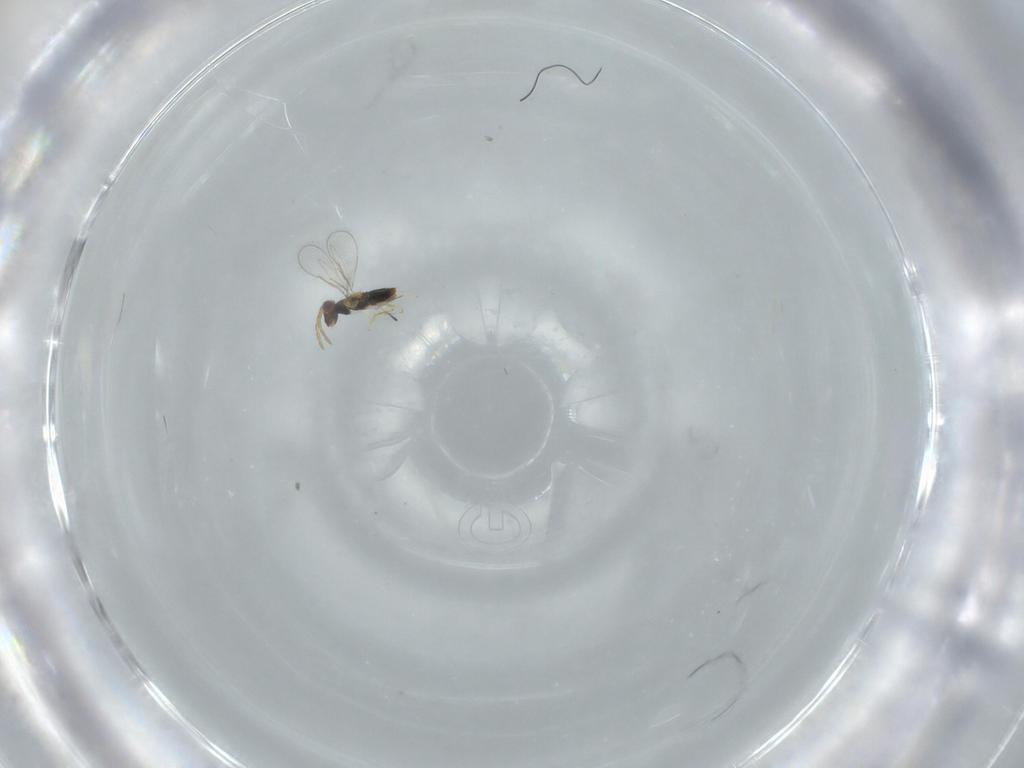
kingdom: Animalia
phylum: Arthropoda
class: Insecta
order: Hymenoptera
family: Aphelinidae
